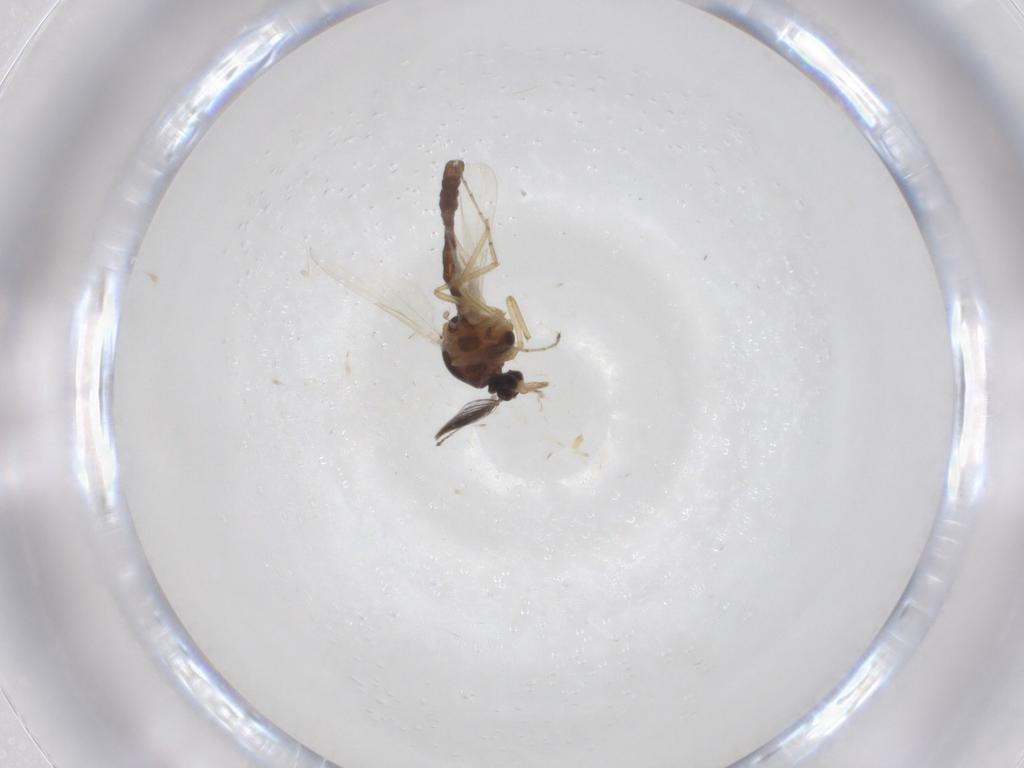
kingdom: Animalia
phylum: Arthropoda
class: Insecta
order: Diptera
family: Ceratopogonidae
